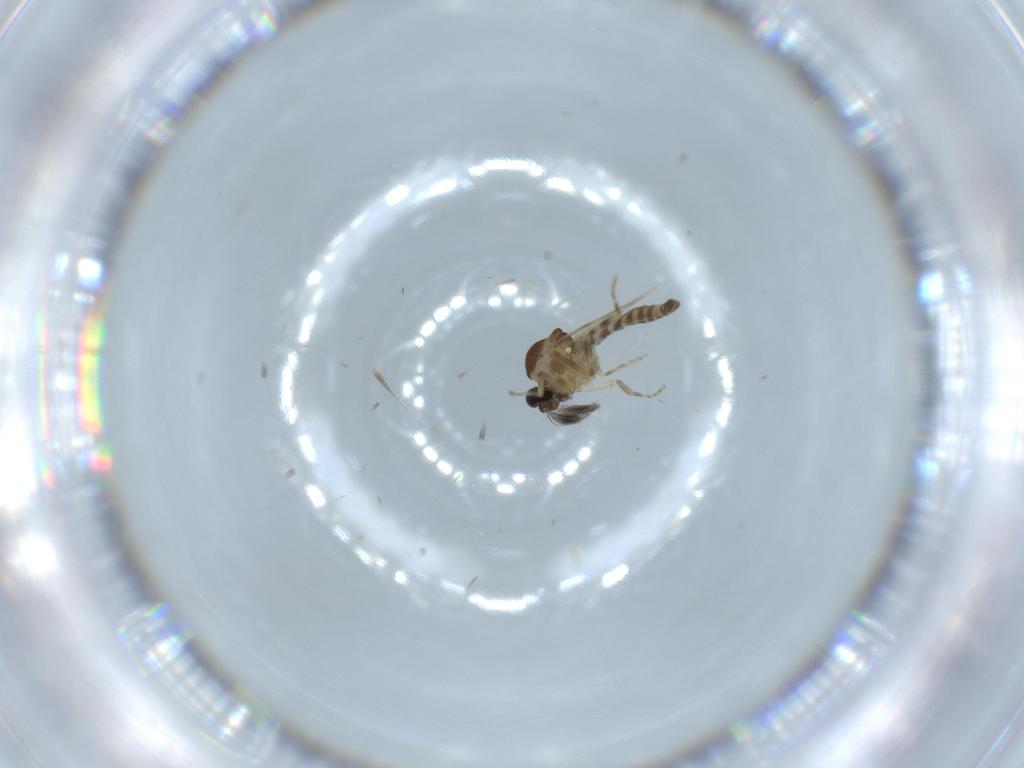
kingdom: Animalia
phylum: Arthropoda
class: Insecta
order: Diptera
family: Ceratopogonidae
